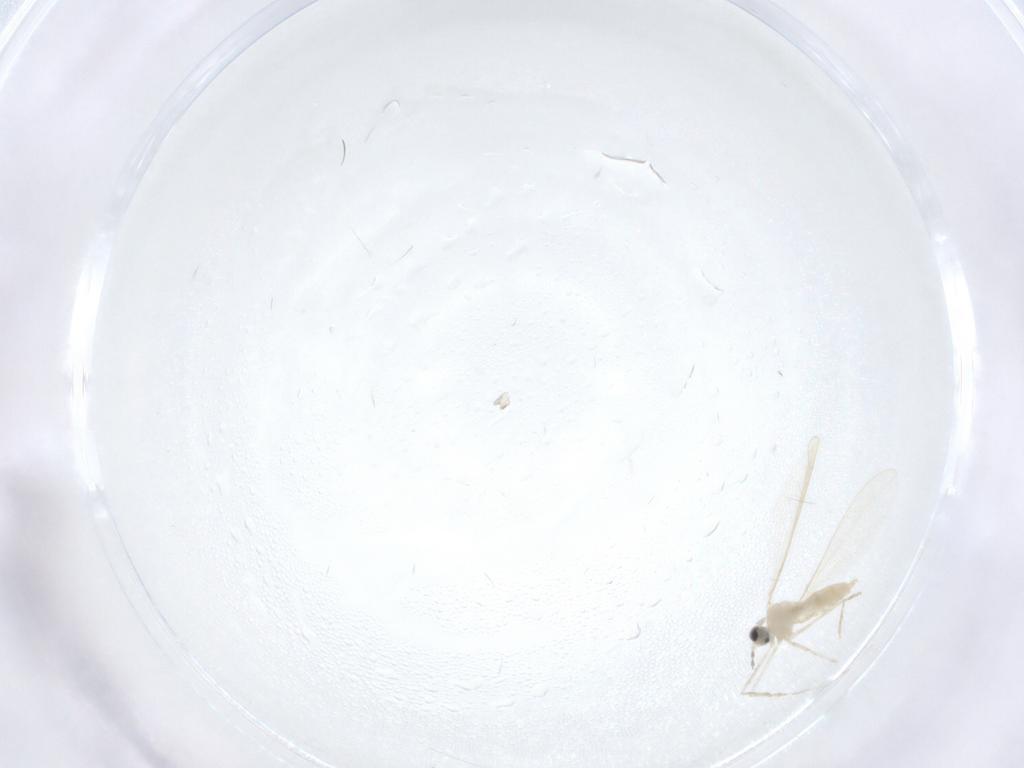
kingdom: Animalia
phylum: Arthropoda
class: Insecta
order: Diptera
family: Cecidomyiidae
